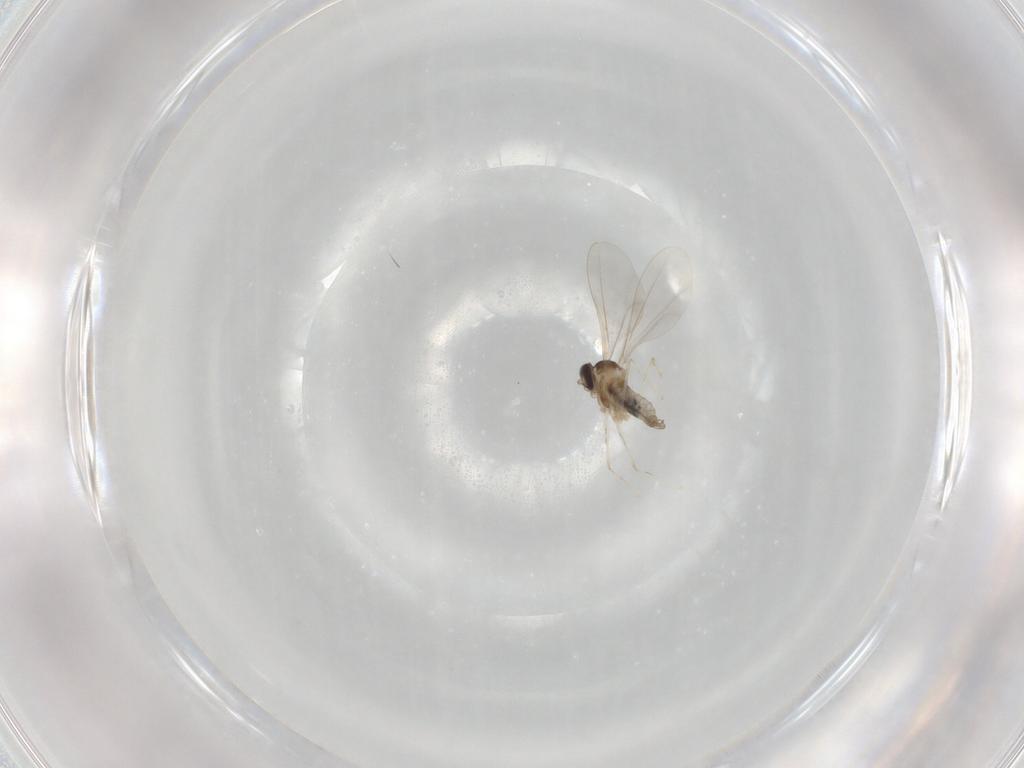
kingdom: Animalia
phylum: Arthropoda
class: Insecta
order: Diptera
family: Cecidomyiidae
